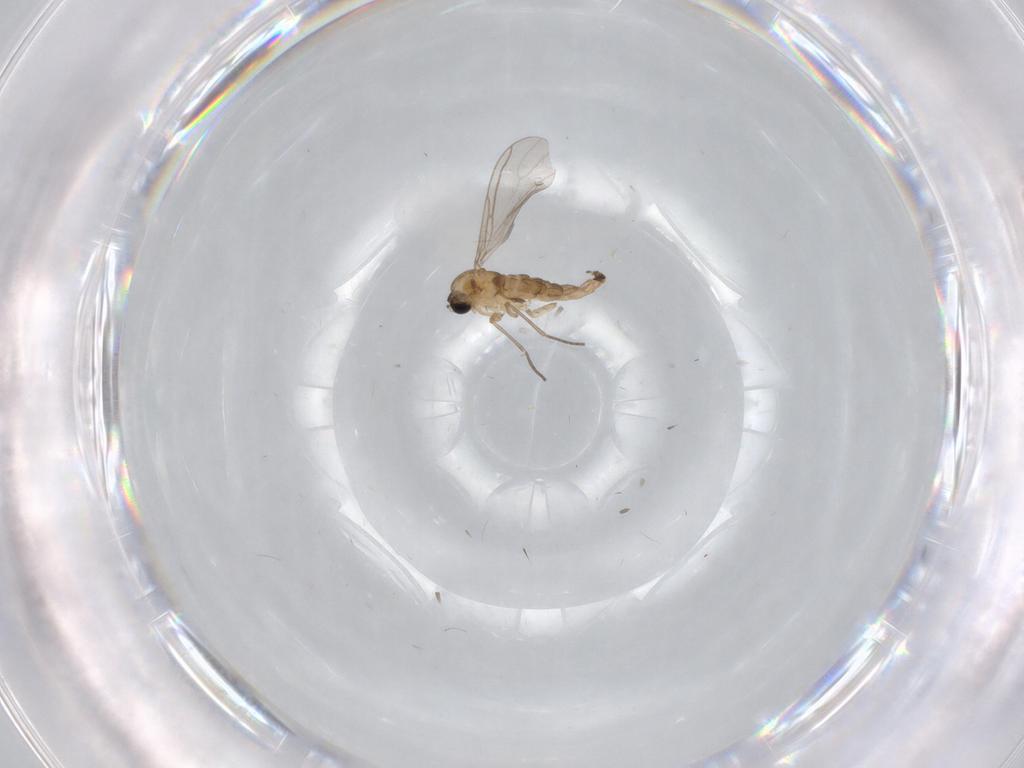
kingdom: Animalia
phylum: Arthropoda
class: Insecta
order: Diptera
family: Sciaridae
